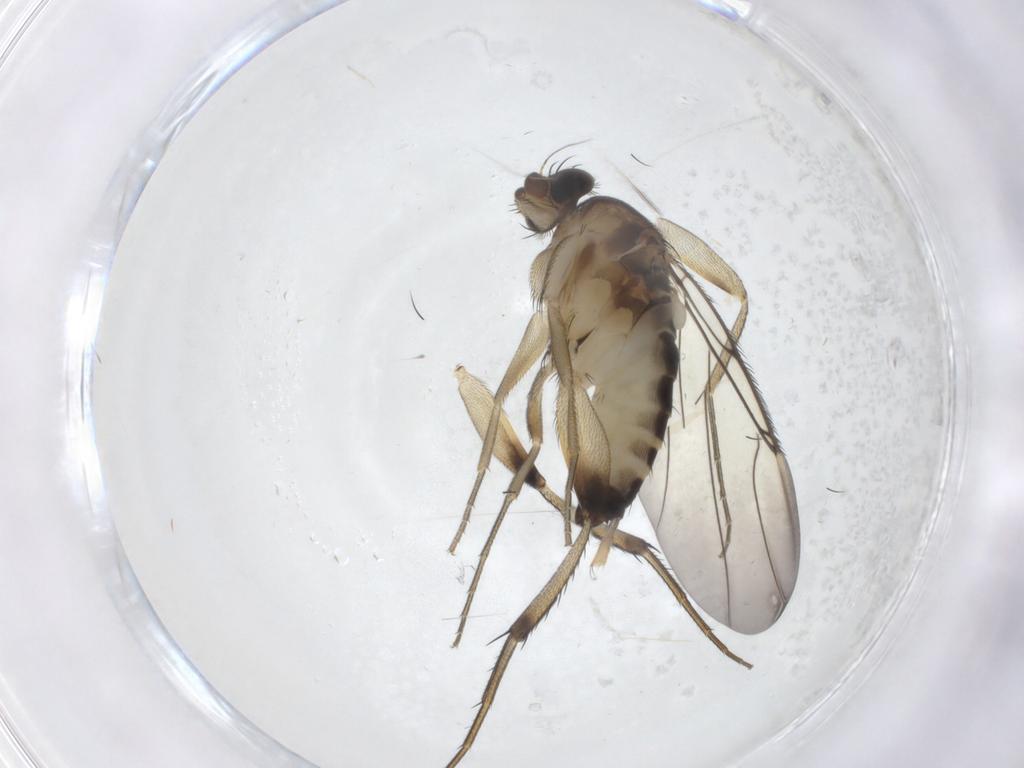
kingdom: Animalia
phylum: Arthropoda
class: Insecta
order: Diptera
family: Phoridae
